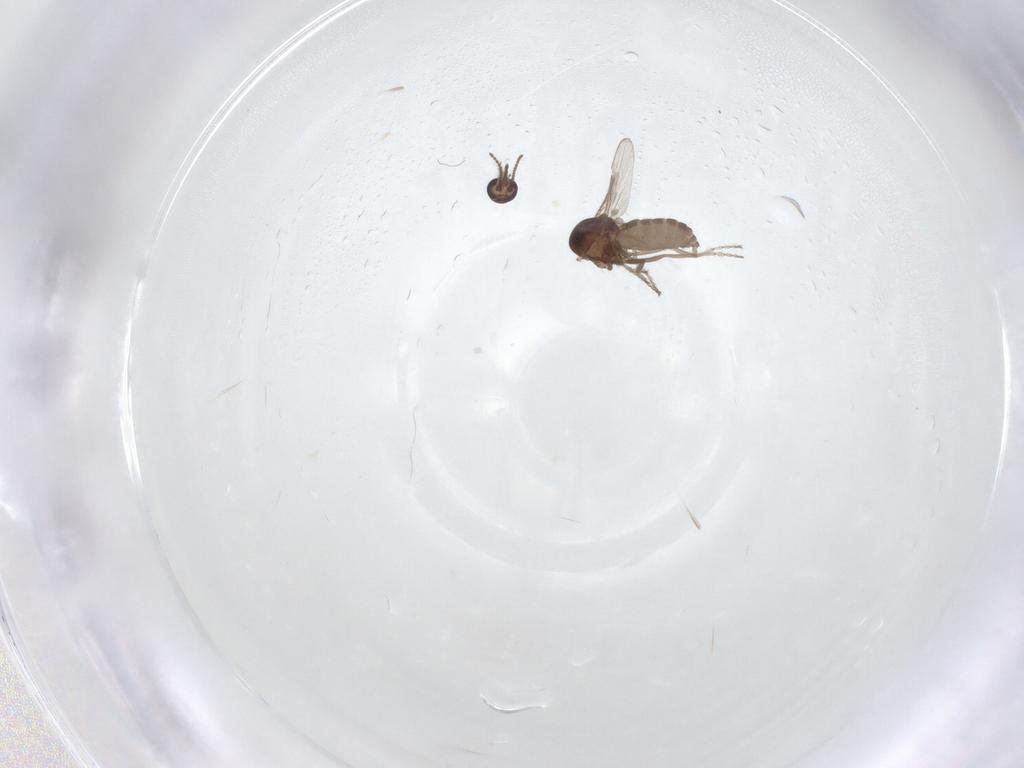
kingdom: Animalia
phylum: Arthropoda
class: Insecta
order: Diptera
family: Ceratopogonidae
